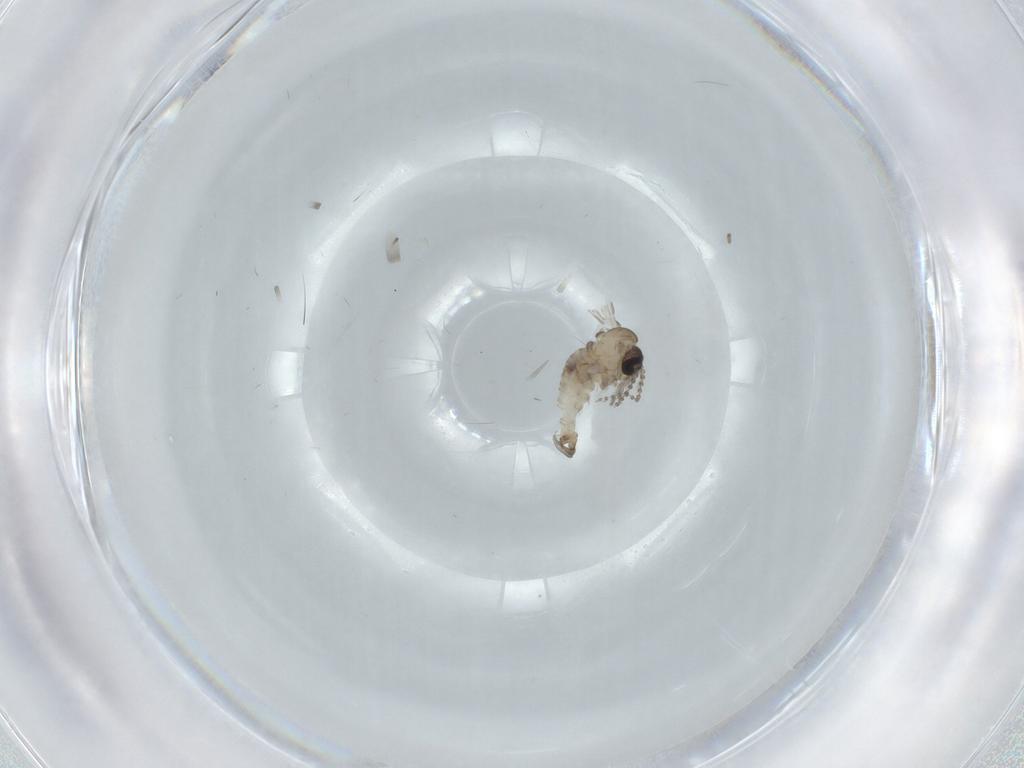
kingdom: Animalia
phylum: Arthropoda
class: Insecta
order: Diptera
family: Psychodidae
